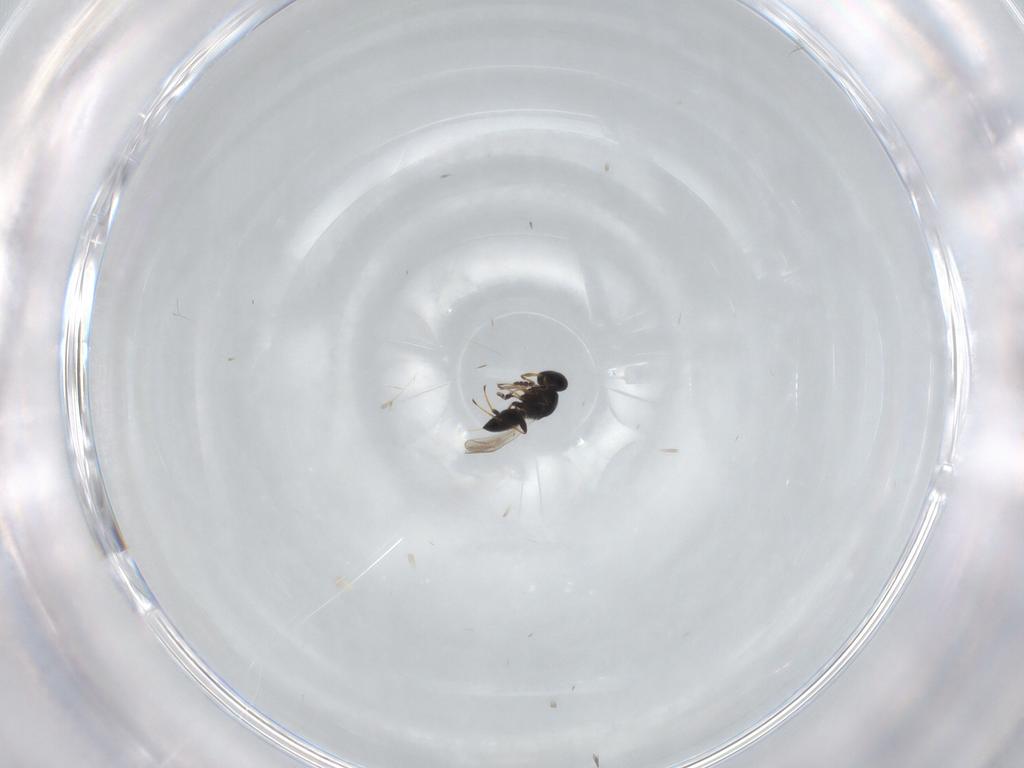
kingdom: Animalia
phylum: Arthropoda
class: Insecta
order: Hymenoptera
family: Platygastridae
